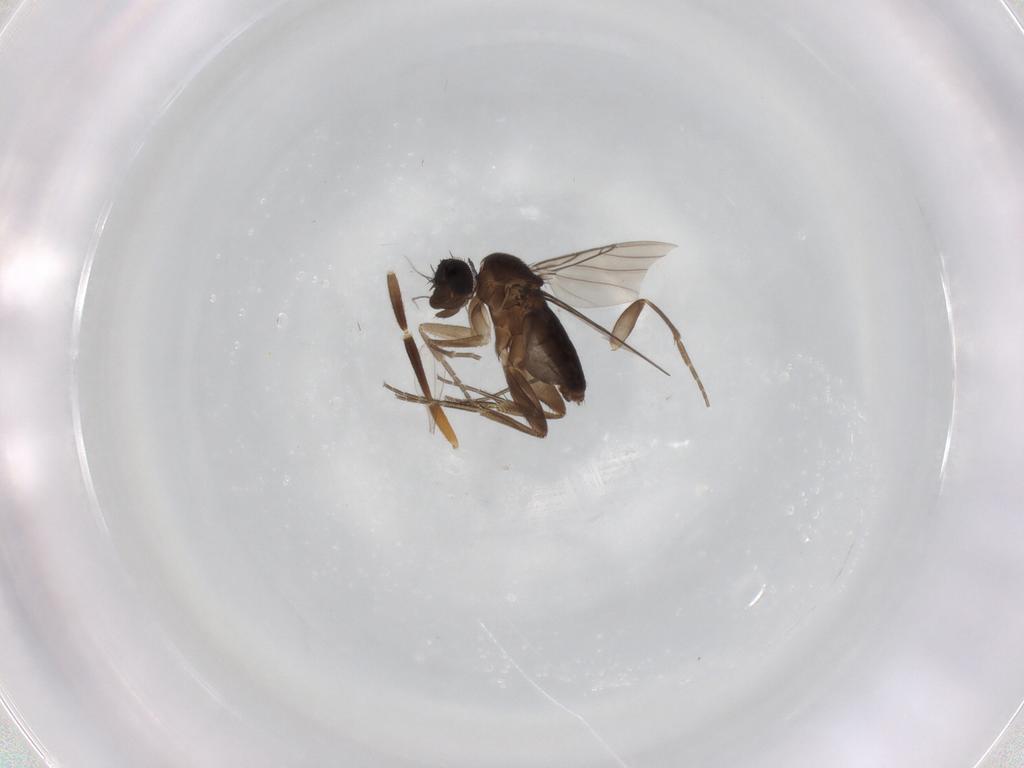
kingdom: Animalia
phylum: Arthropoda
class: Insecta
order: Diptera
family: Phoridae
